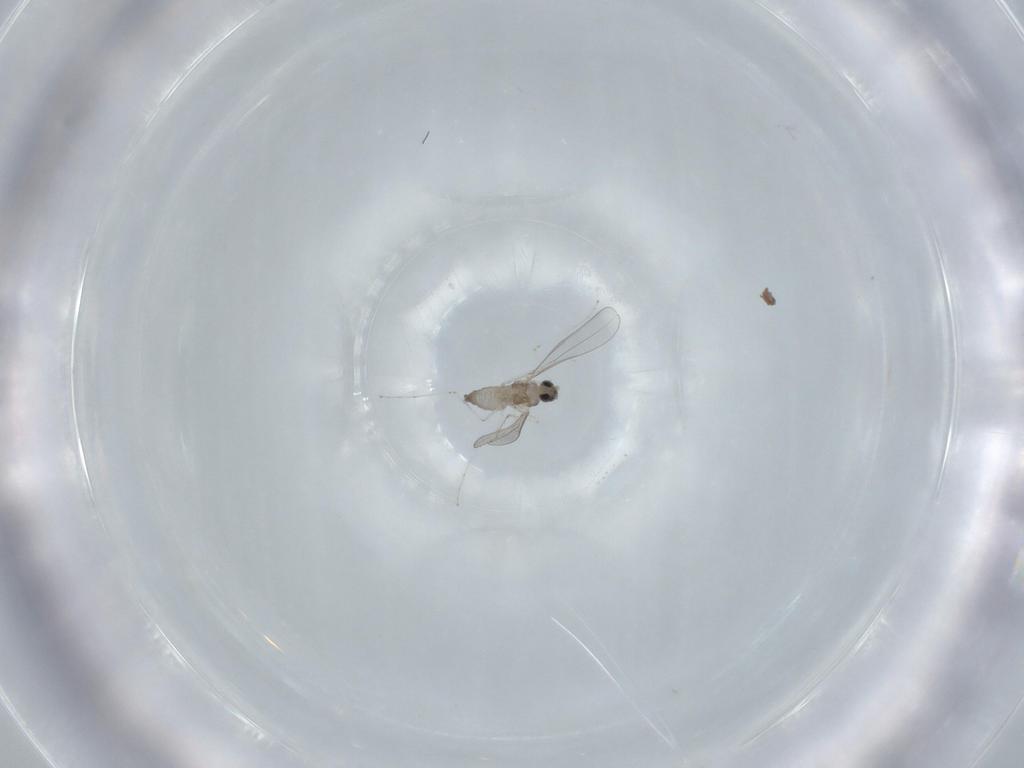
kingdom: Animalia
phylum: Arthropoda
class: Insecta
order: Diptera
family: Cecidomyiidae
